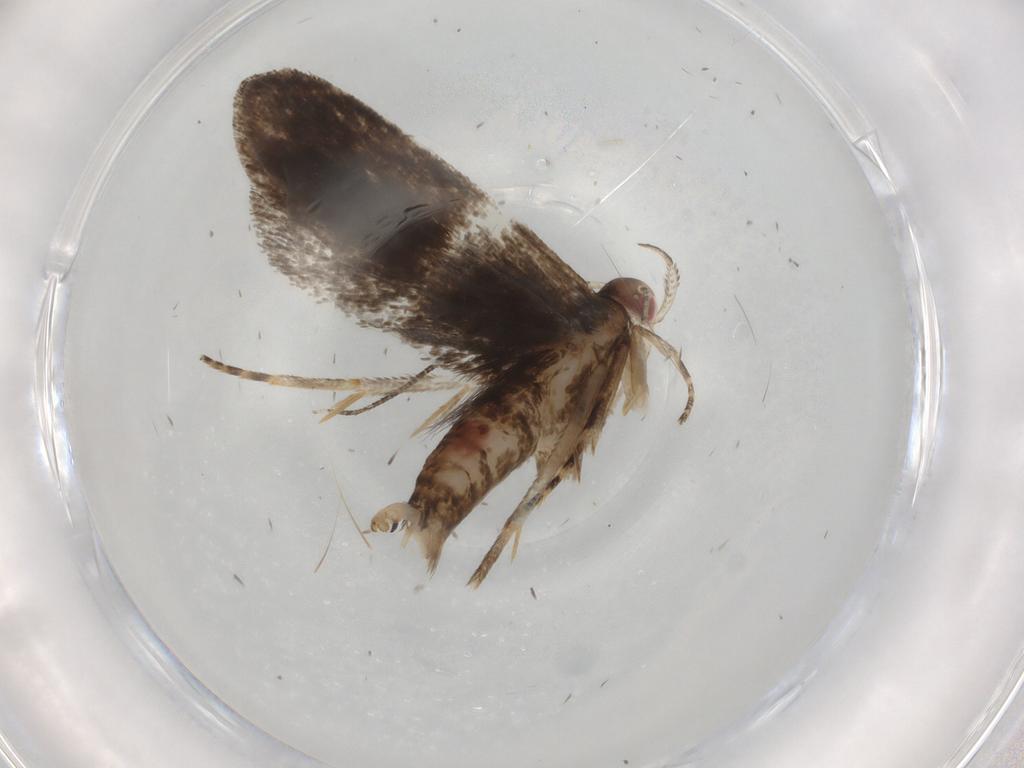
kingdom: Animalia
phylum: Arthropoda
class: Insecta
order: Lepidoptera
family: Gelechiidae
